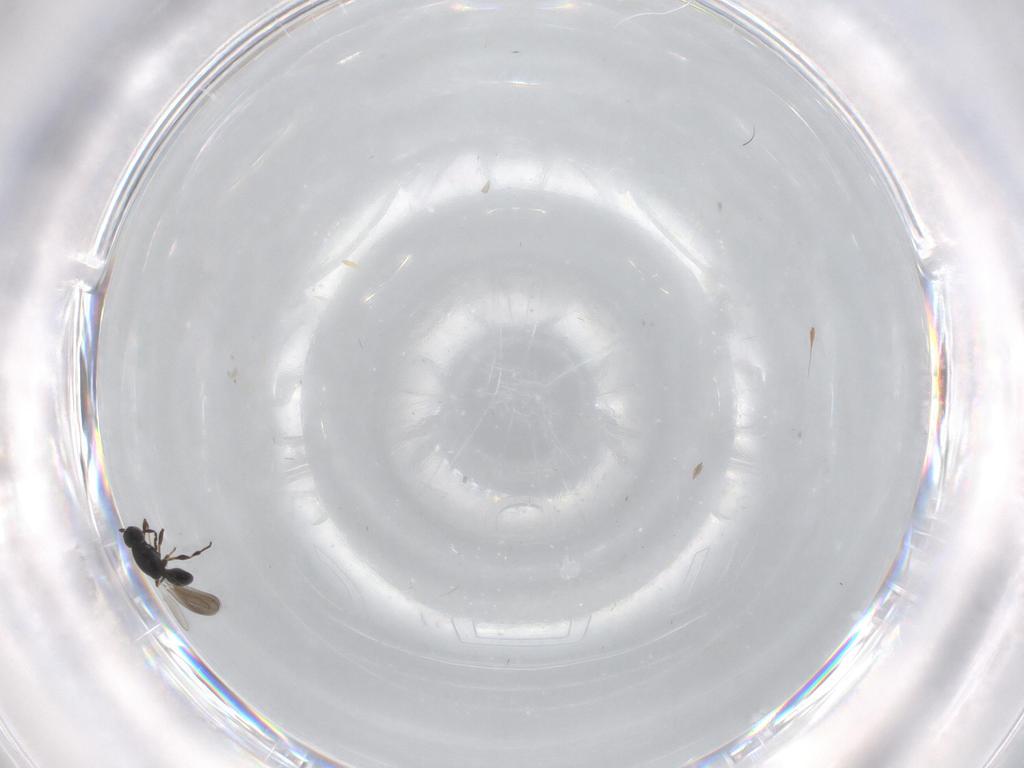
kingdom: Animalia
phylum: Arthropoda
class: Insecta
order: Hymenoptera
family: Platygastridae
